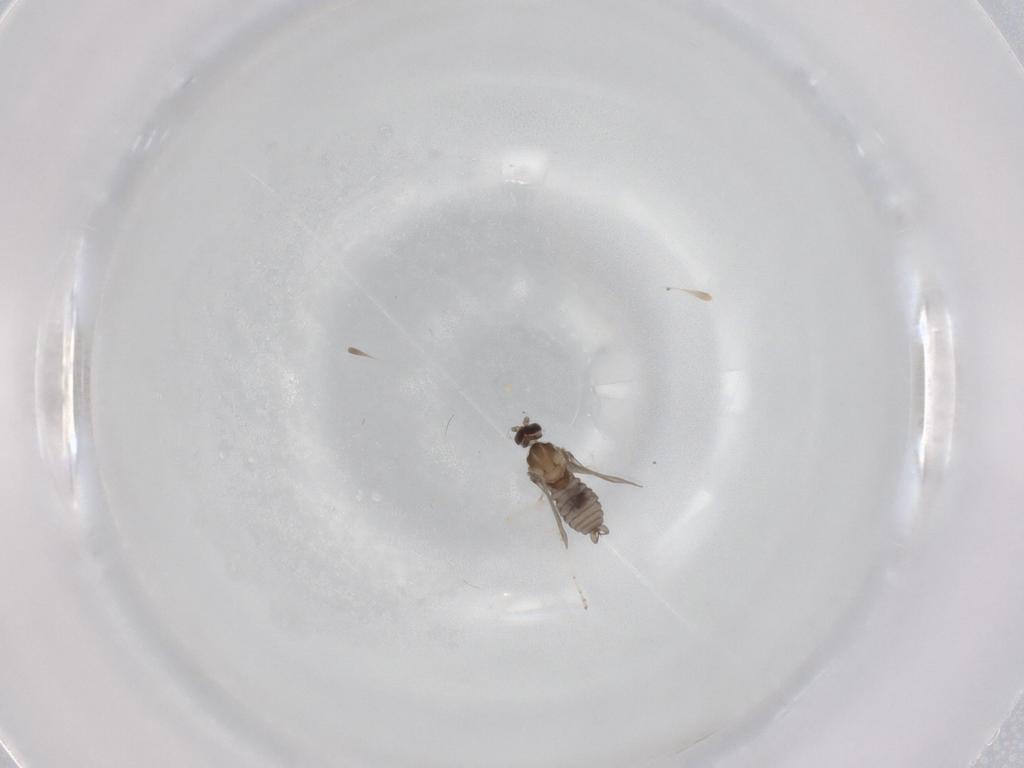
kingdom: Animalia
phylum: Arthropoda
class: Insecta
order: Diptera
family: Cecidomyiidae
